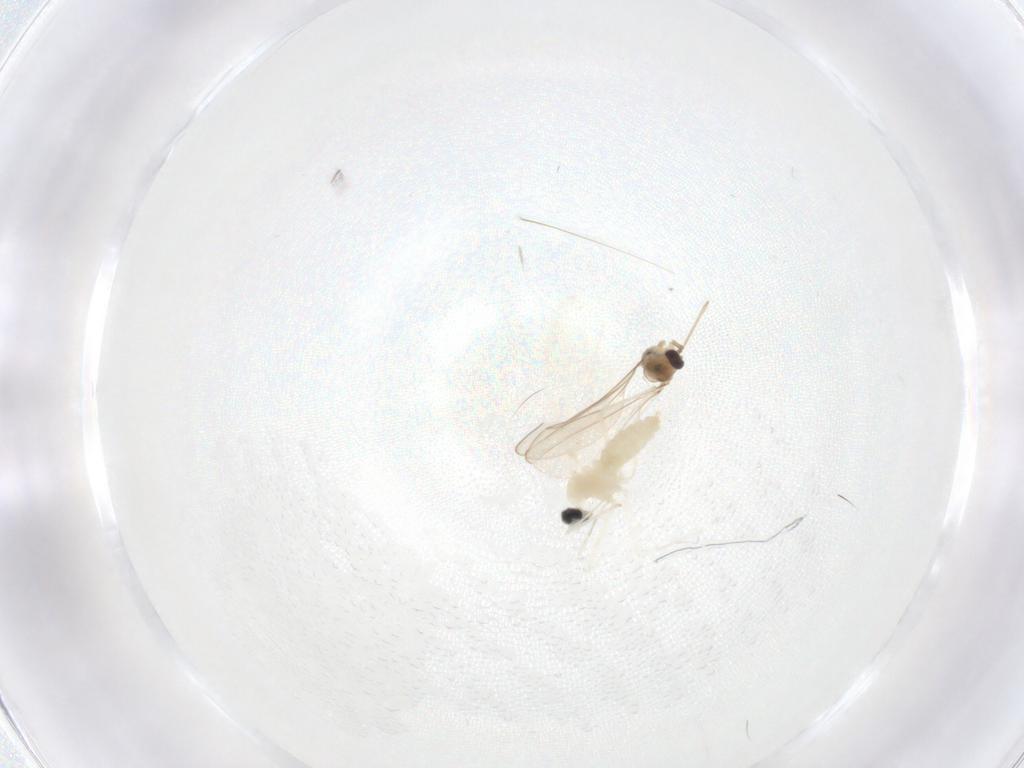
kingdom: Animalia
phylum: Arthropoda
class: Insecta
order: Diptera
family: Cecidomyiidae
